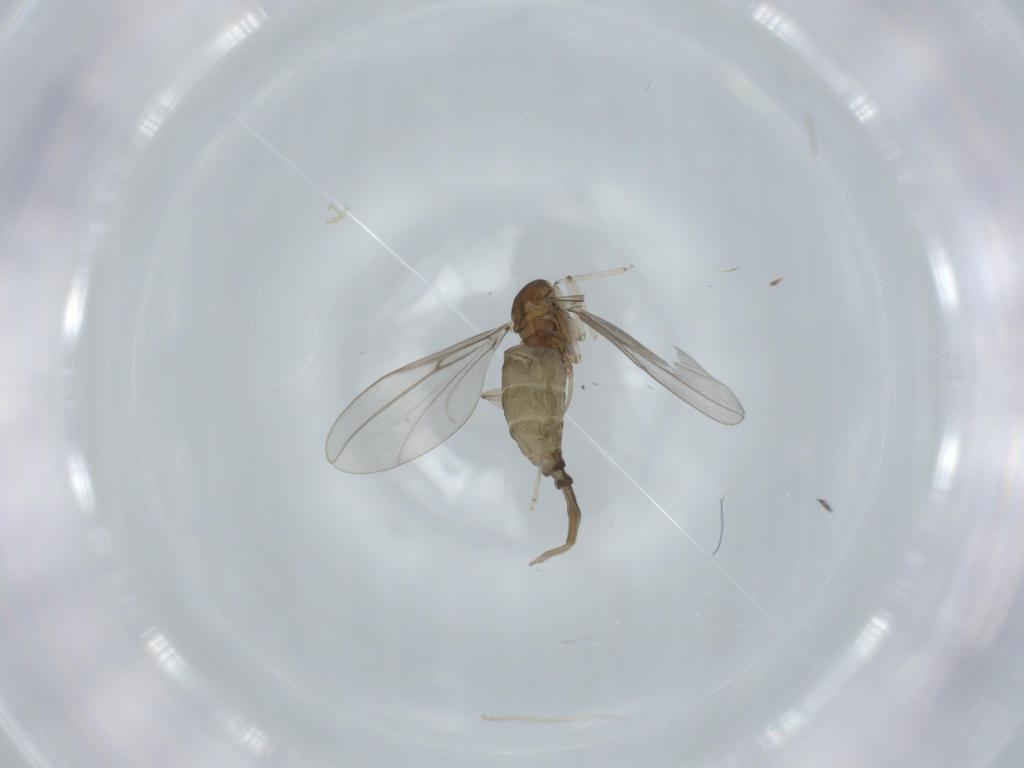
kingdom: Animalia
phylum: Arthropoda
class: Insecta
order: Diptera
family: Cecidomyiidae
